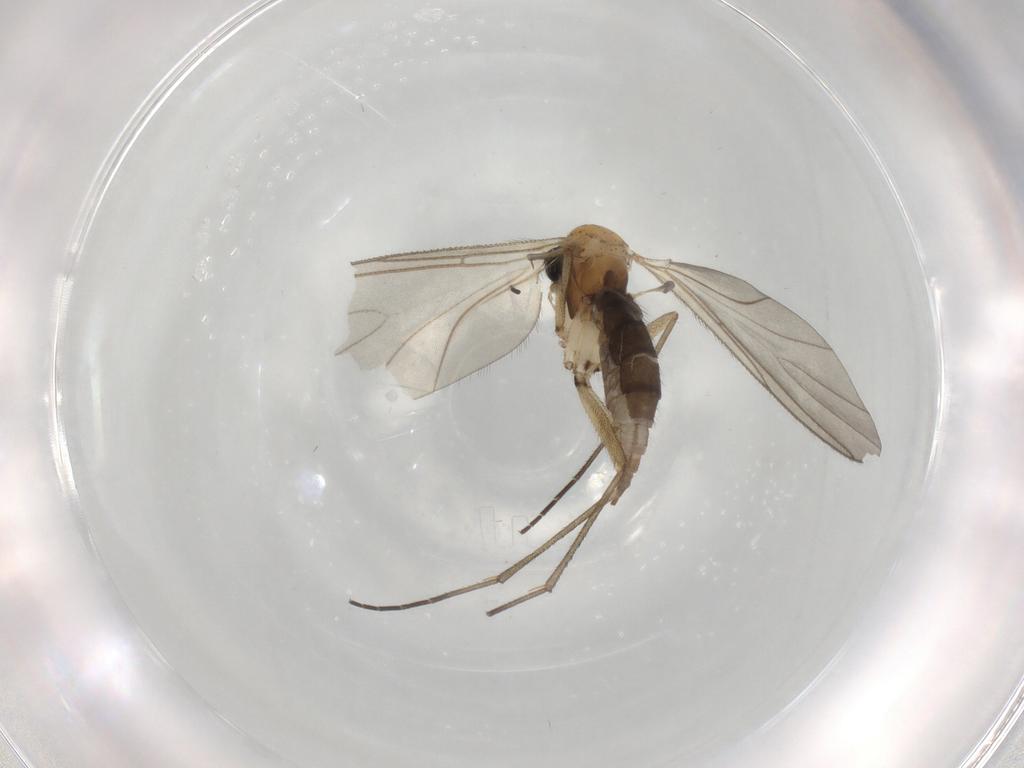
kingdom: Animalia
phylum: Arthropoda
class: Insecta
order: Diptera
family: Sciaridae
